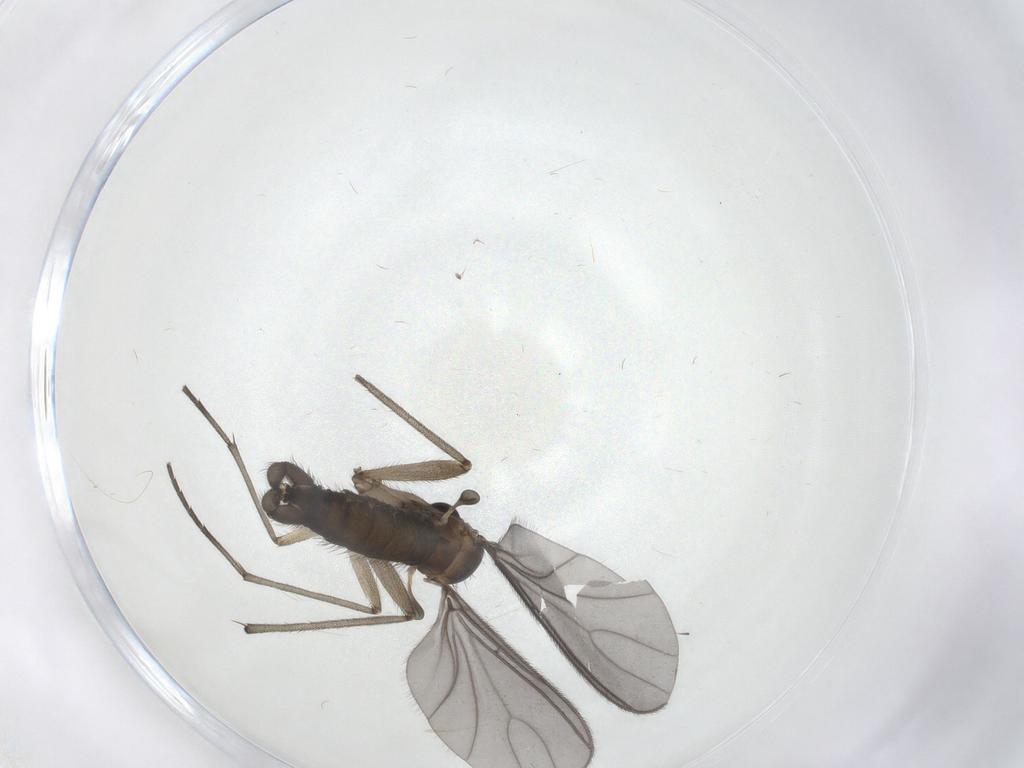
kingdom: Animalia
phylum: Arthropoda
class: Insecta
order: Diptera
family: Sciaridae
